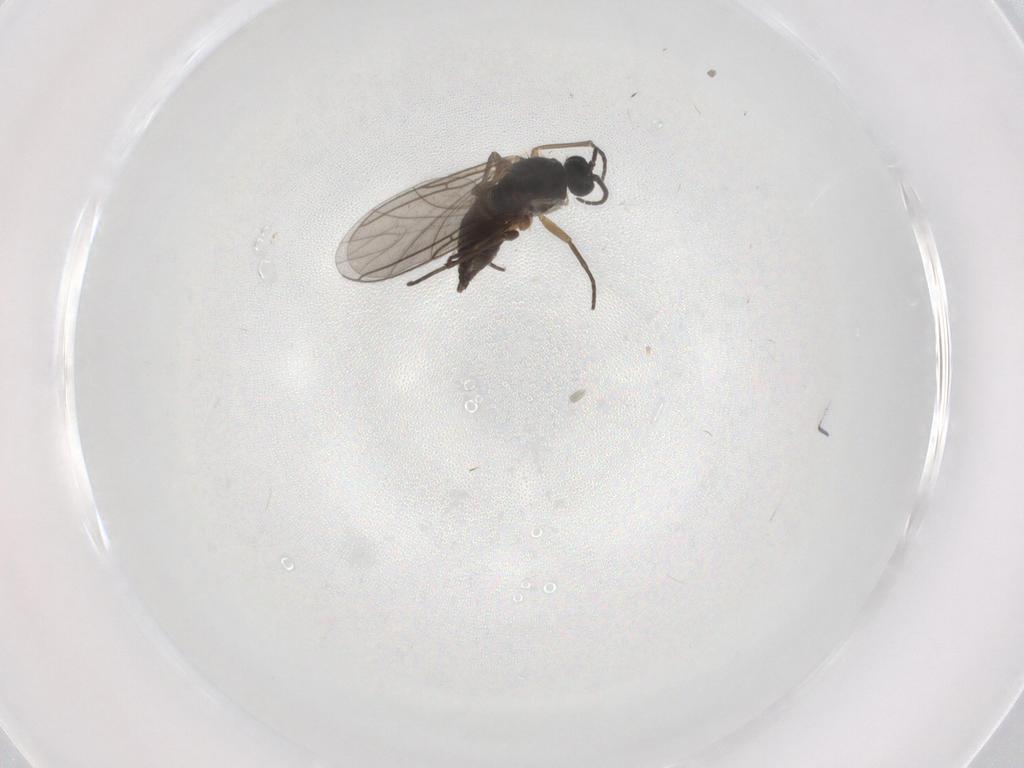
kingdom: Animalia
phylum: Arthropoda
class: Insecta
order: Diptera
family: Sciaridae
